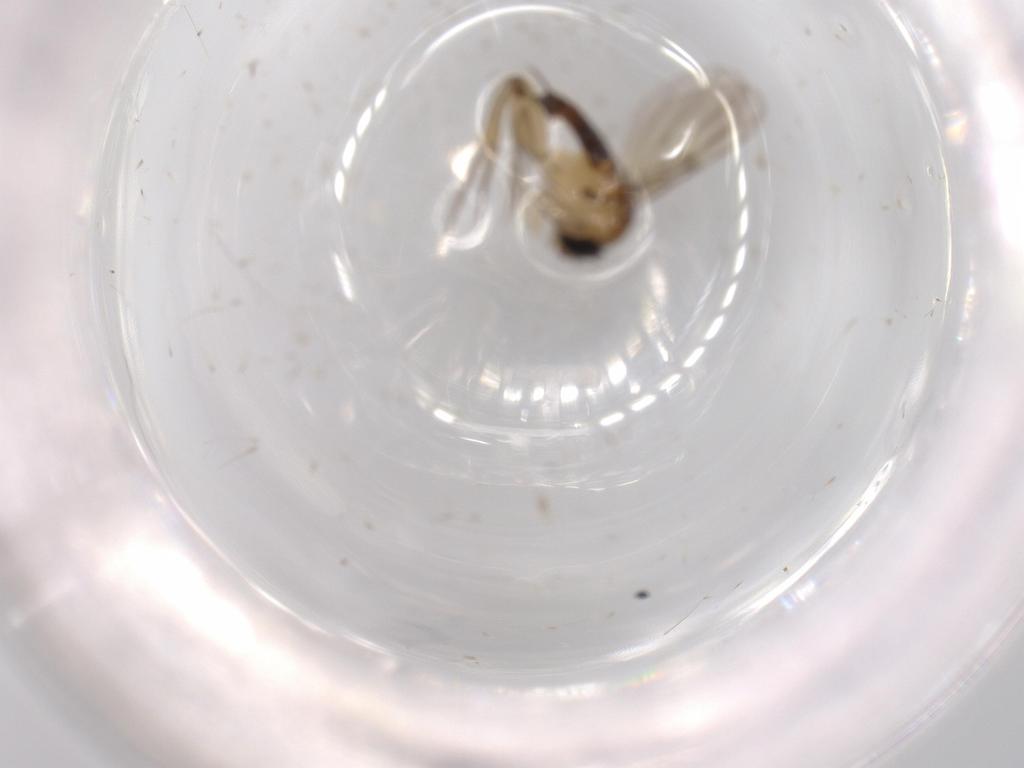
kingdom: Animalia
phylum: Arthropoda
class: Insecta
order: Diptera
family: Phoridae
